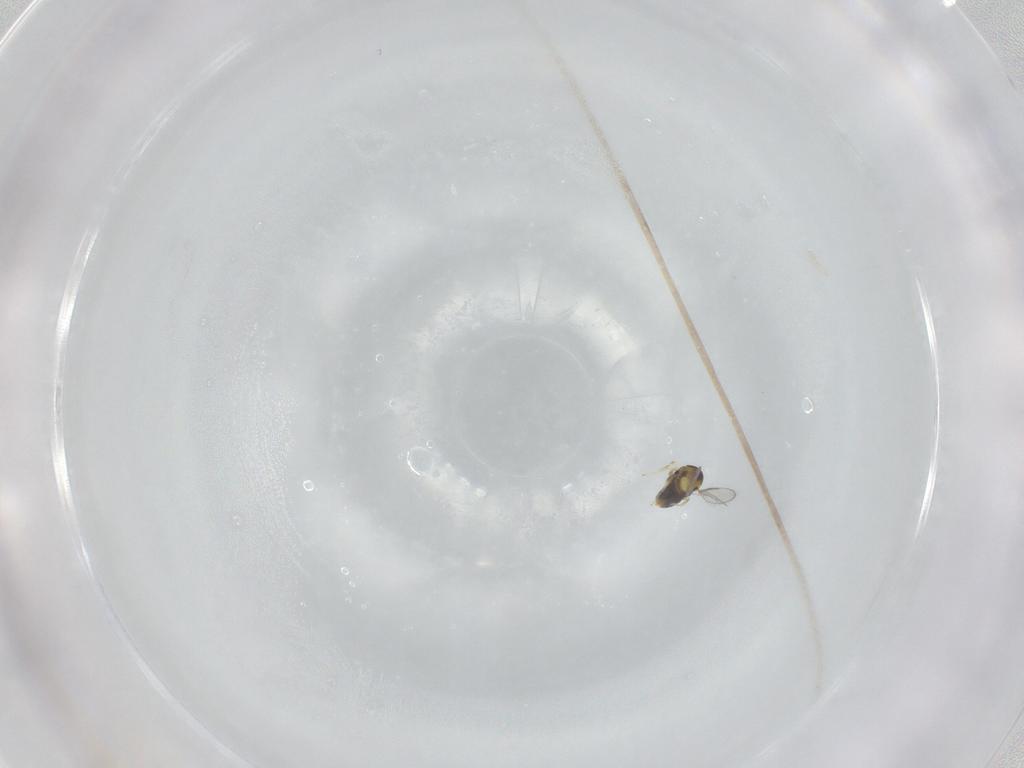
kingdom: Animalia
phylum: Arthropoda
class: Insecta
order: Hymenoptera
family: Aphelinidae
